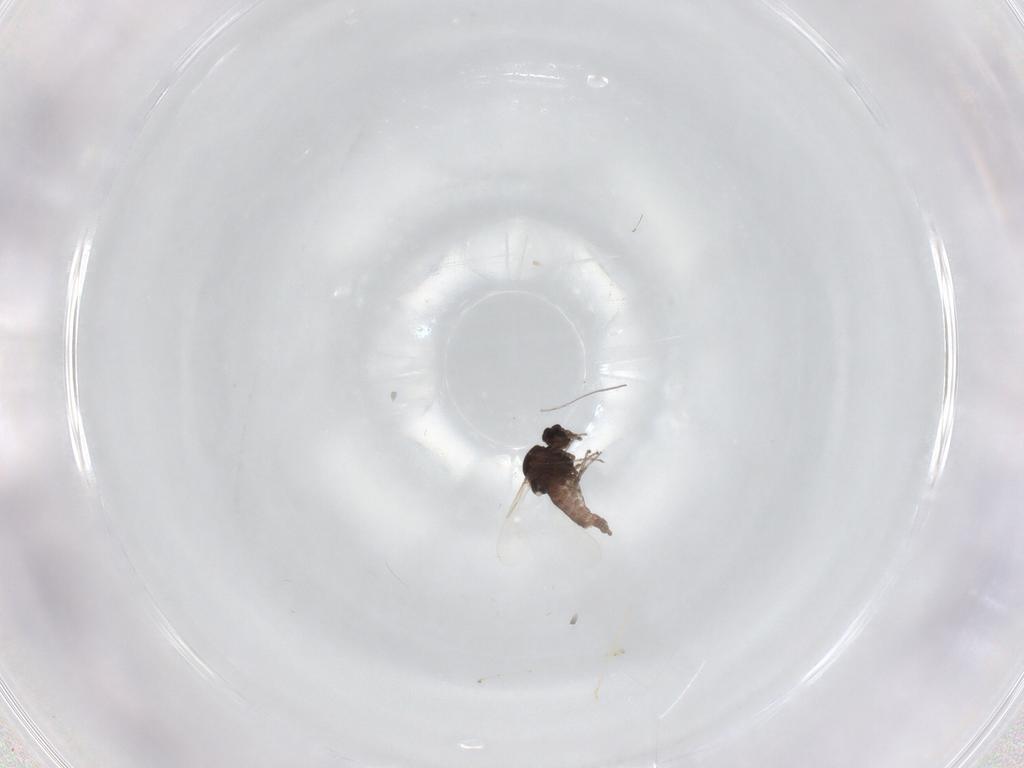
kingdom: Animalia
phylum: Arthropoda
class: Insecta
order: Diptera
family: Ceratopogonidae
